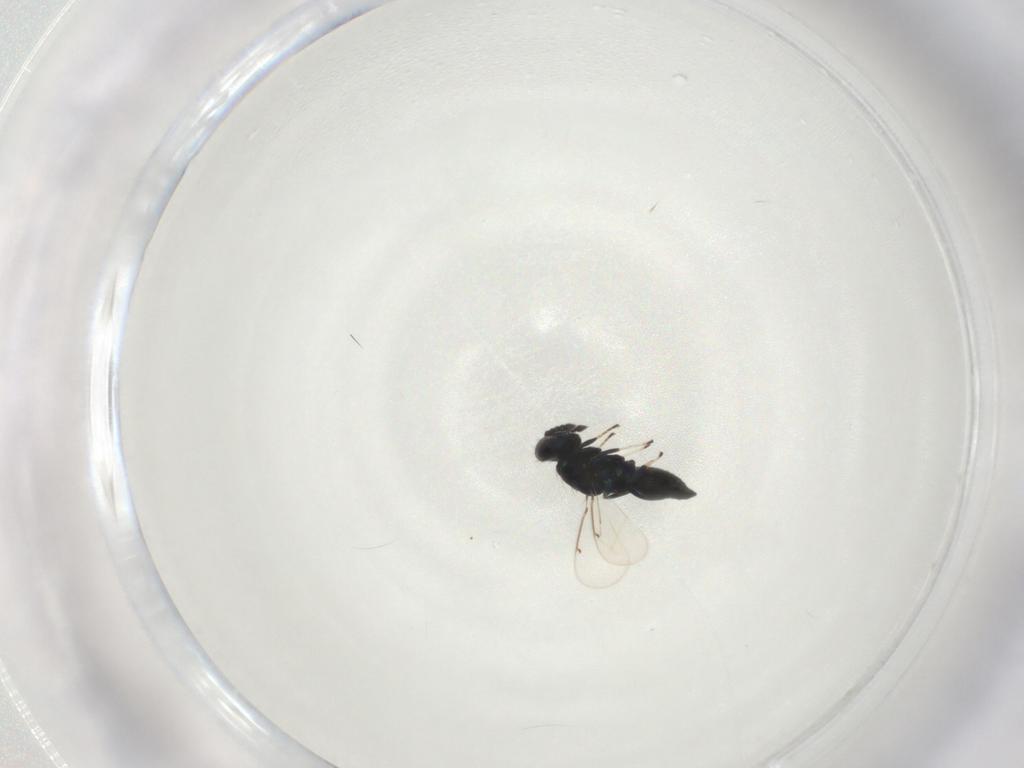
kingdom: Animalia
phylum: Arthropoda
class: Insecta
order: Hymenoptera
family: Eulophidae
